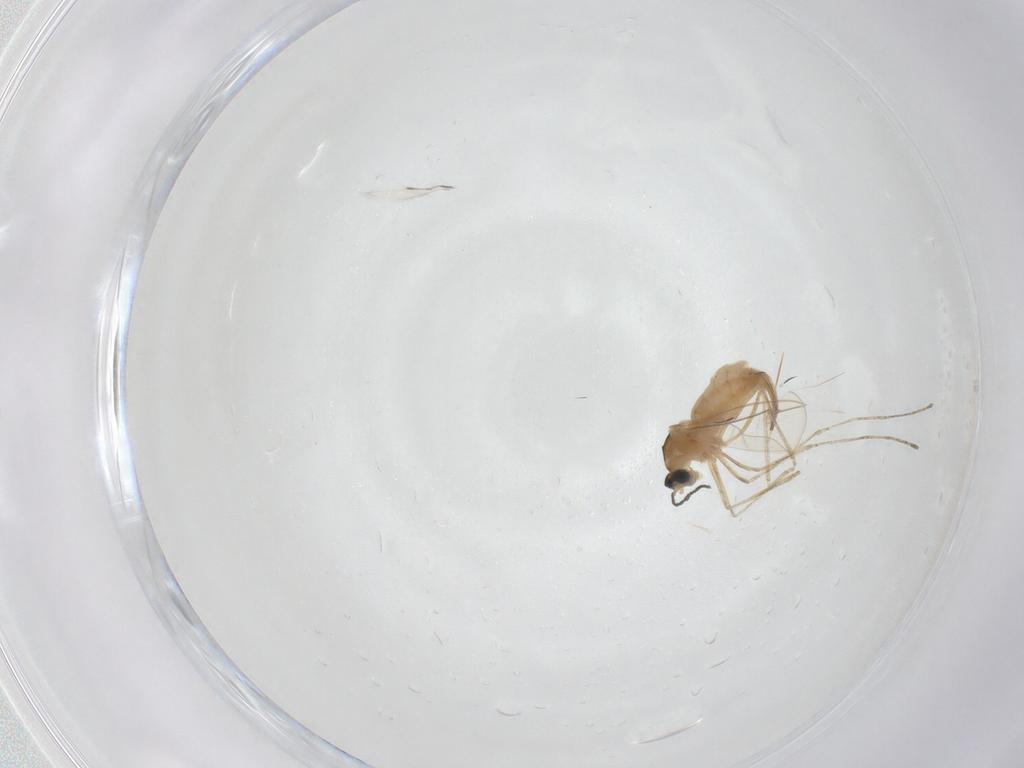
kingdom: Animalia
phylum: Arthropoda
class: Insecta
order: Diptera
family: Cecidomyiidae
